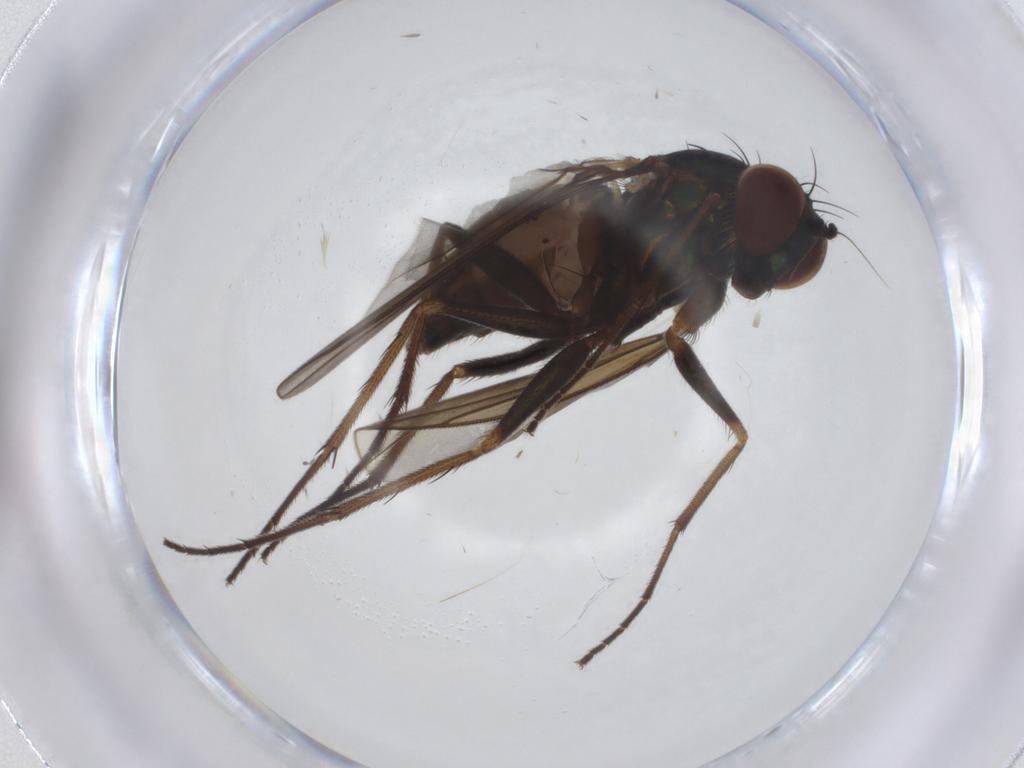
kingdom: Animalia
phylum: Arthropoda
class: Insecta
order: Diptera
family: Dolichopodidae
